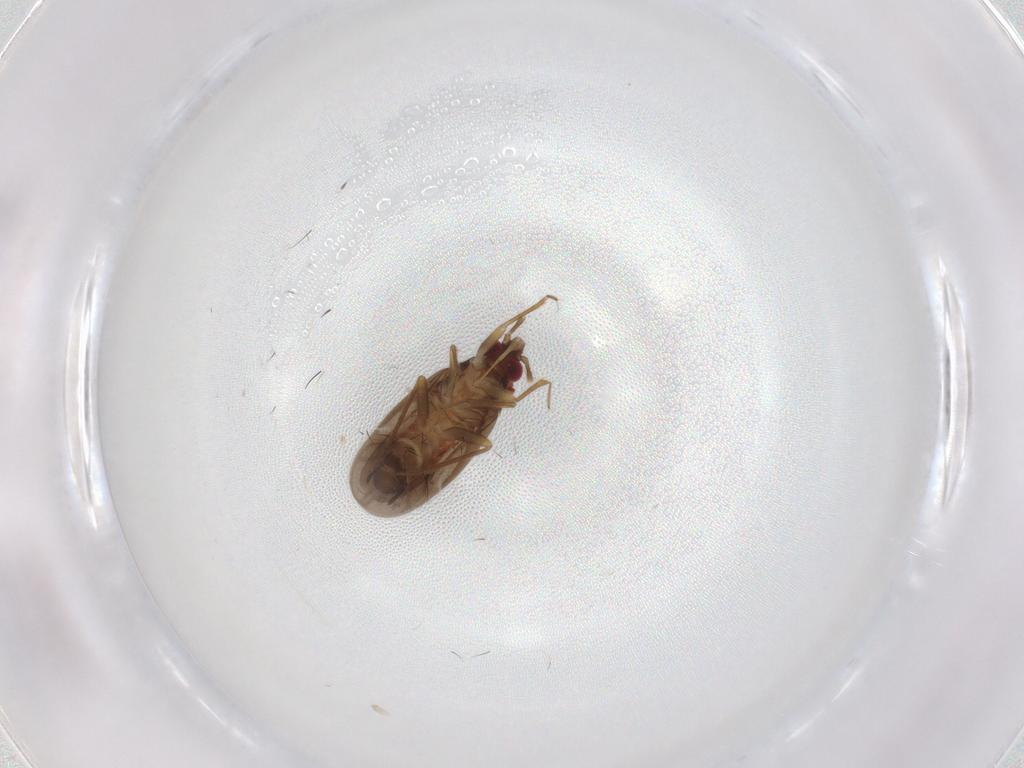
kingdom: Animalia
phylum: Arthropoda
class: Insecta
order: Hemiptera
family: Ceratocombidae
